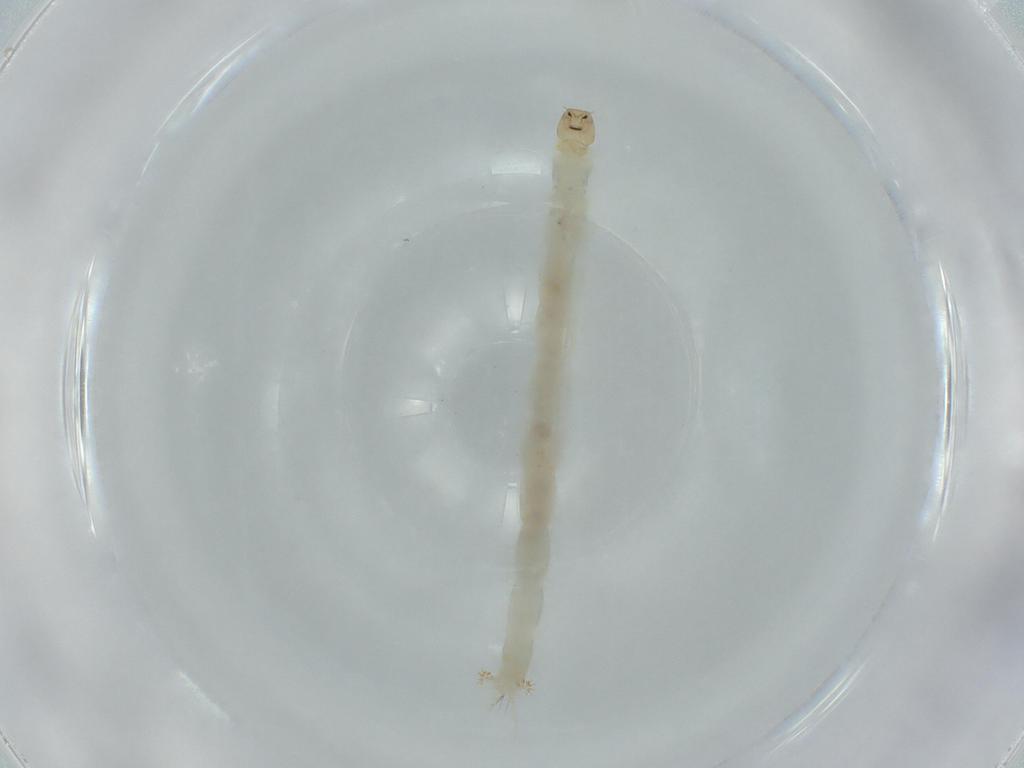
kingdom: Animalia
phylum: Arthropoda
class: Insecta
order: Diptera
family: Chironomidae
